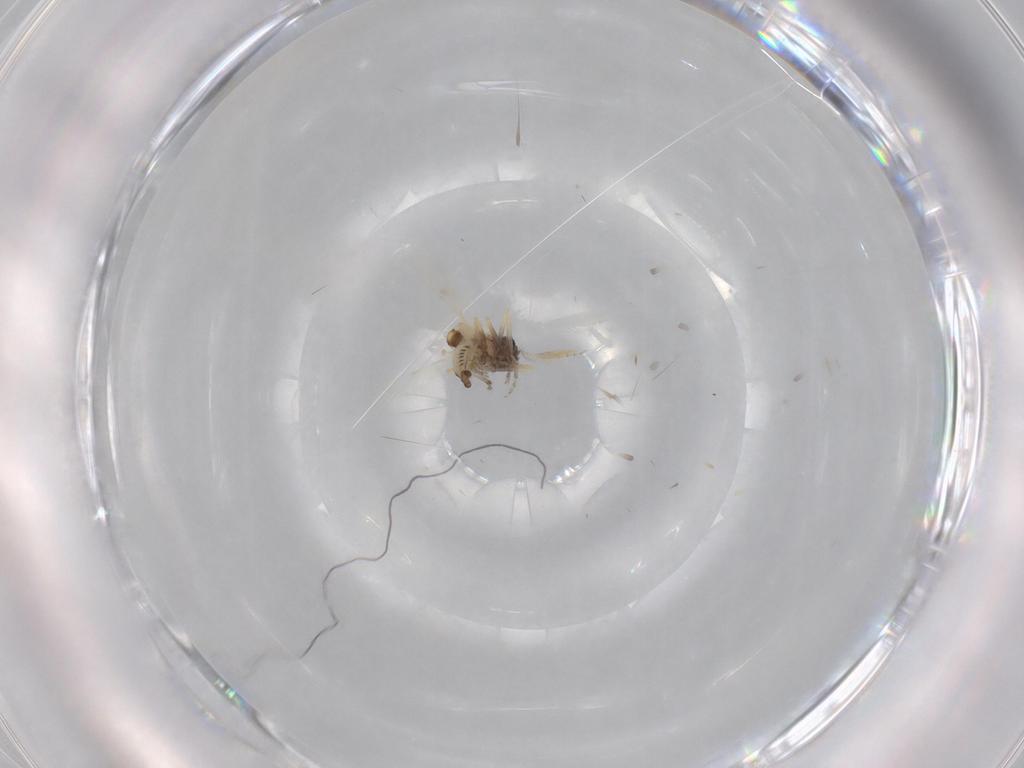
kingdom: Animalia
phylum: Arthropoda
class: Insecta
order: Diptera
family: Ceratopogonidae
